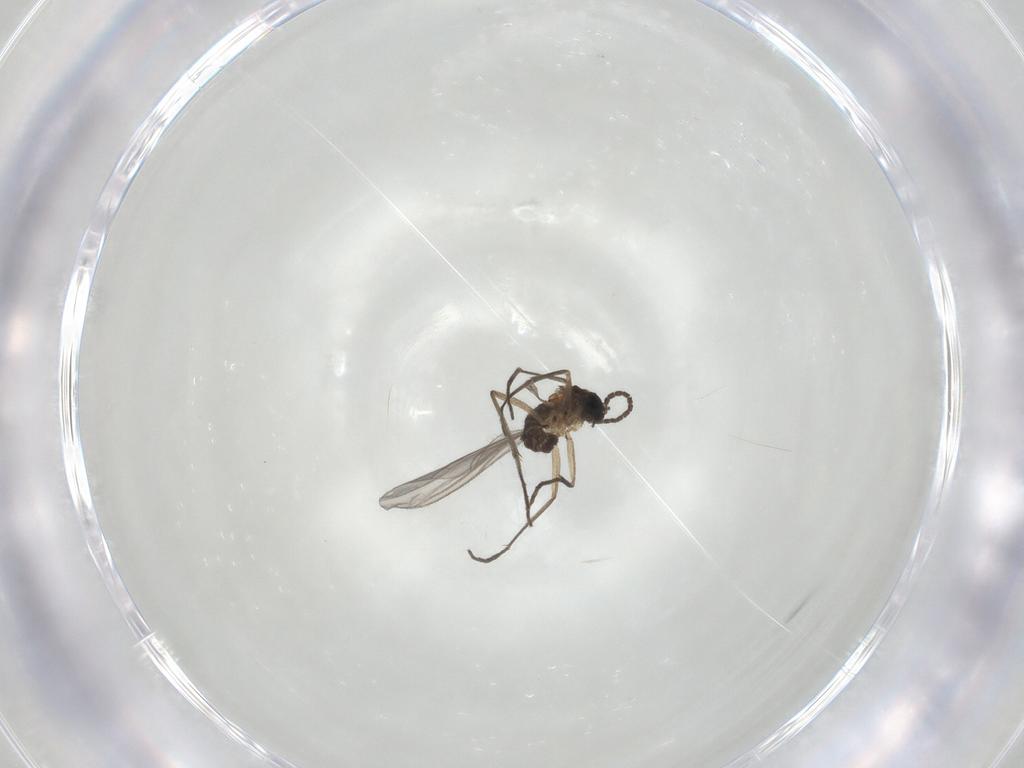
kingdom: Animalia
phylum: Arthropoda
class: Insecta
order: Diptera
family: Sciaridae
